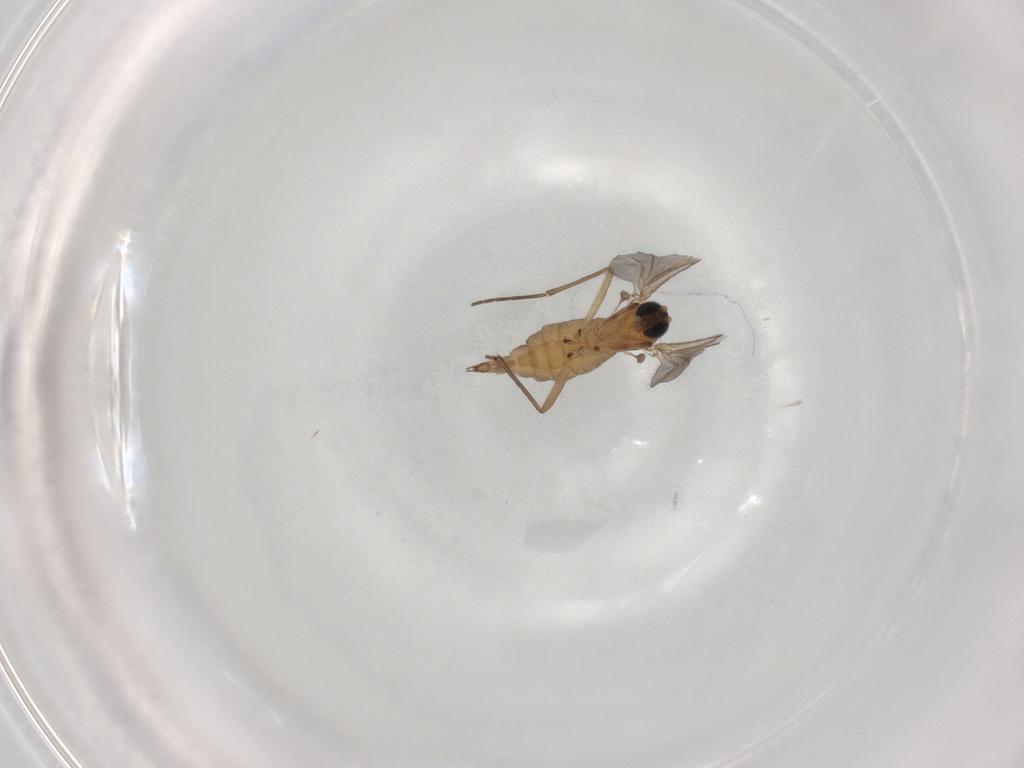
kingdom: Animalia
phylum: Arthropoda
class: Insecta
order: Diptera
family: Sciaridae
